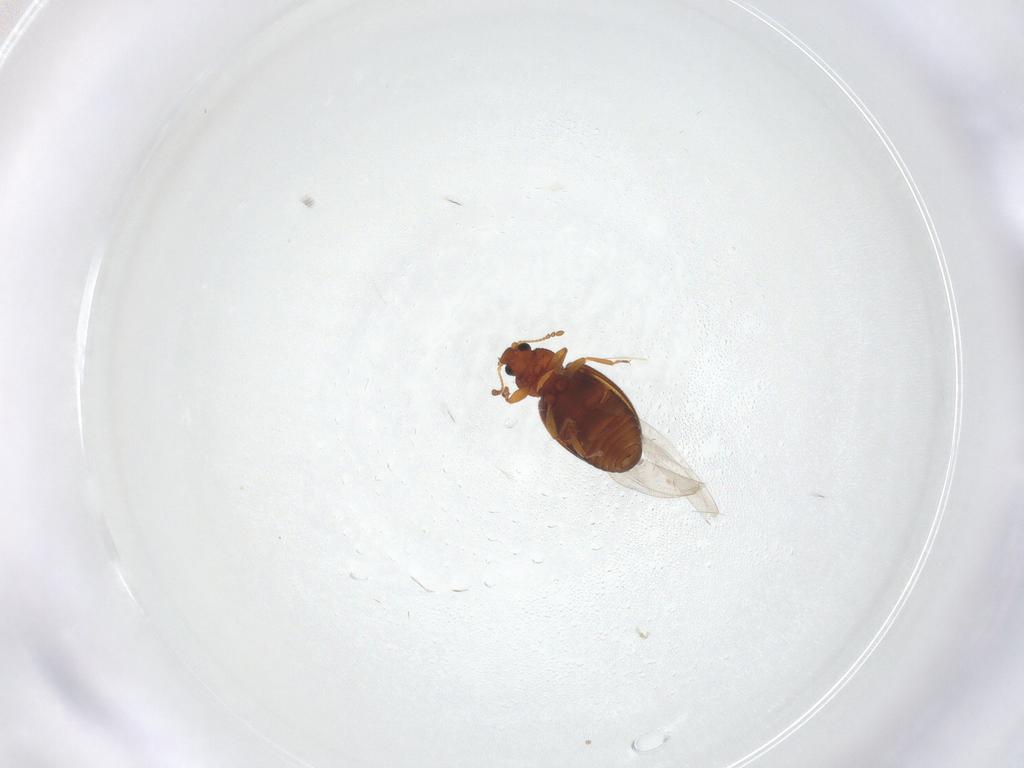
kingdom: Animalia
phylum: Arthropoda
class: Insecta
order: Coleoptera
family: Latridiidae
